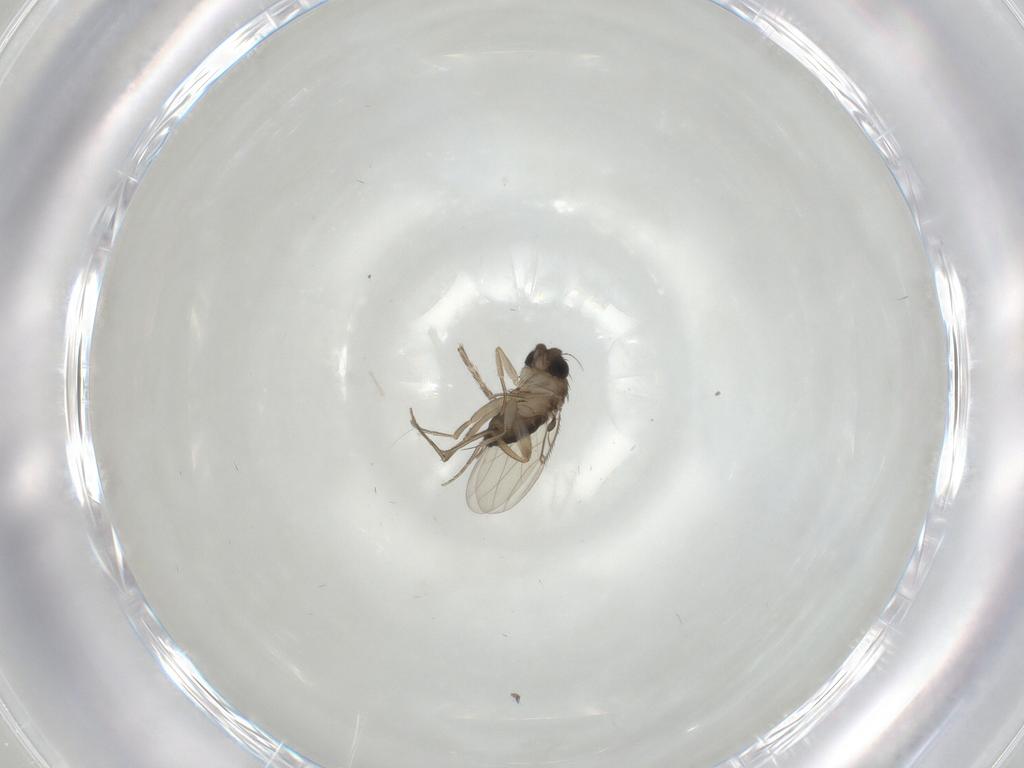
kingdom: Animalia
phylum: Arthropoda
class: Insecta
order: Diptera
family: Phoridae
